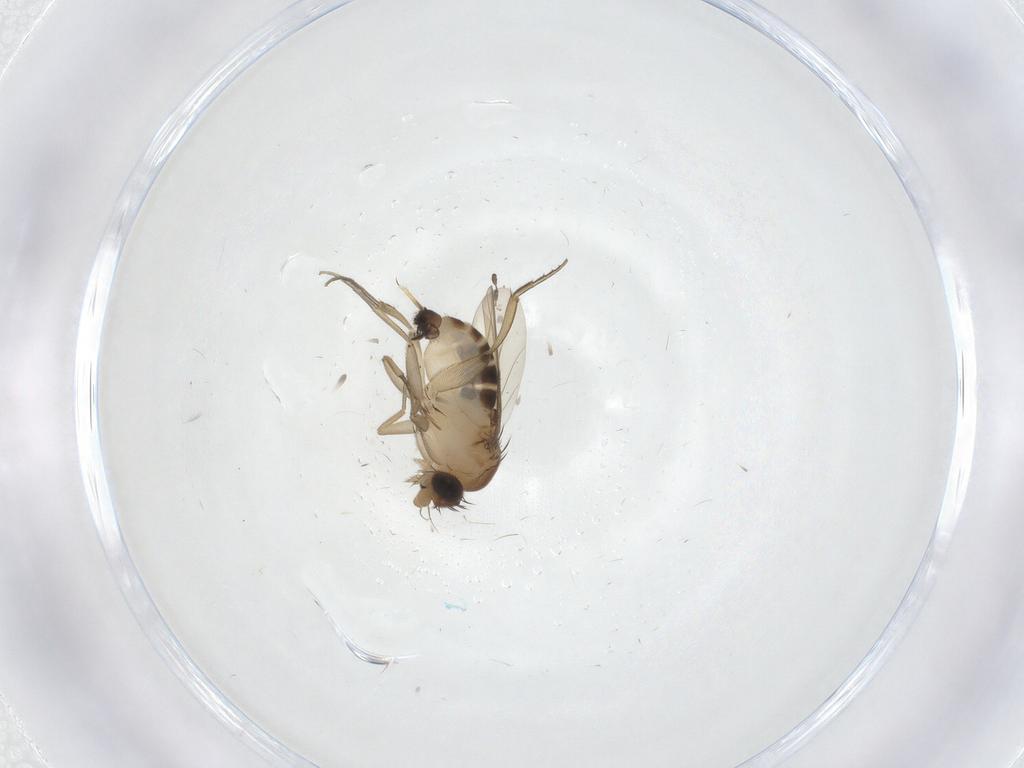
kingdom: Animalia
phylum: Arthropoda
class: Insecta
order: Diptera
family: Phoridae
